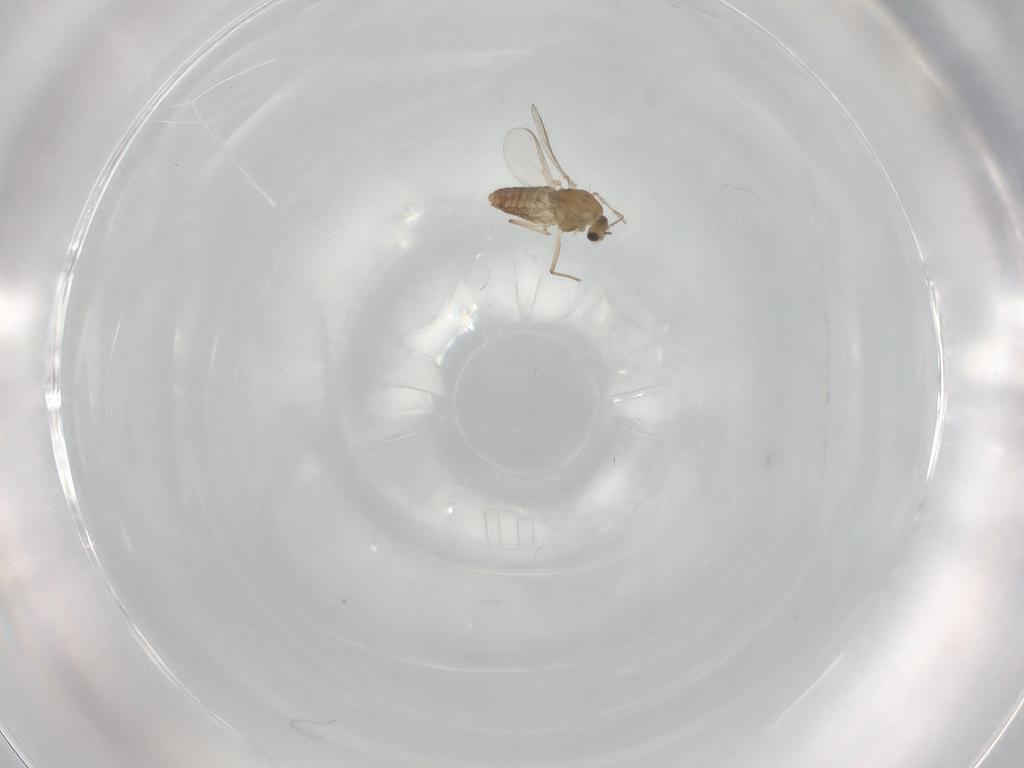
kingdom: Animalia
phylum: Arthropoda
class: Insecta
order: Diptera
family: Chironomidae
